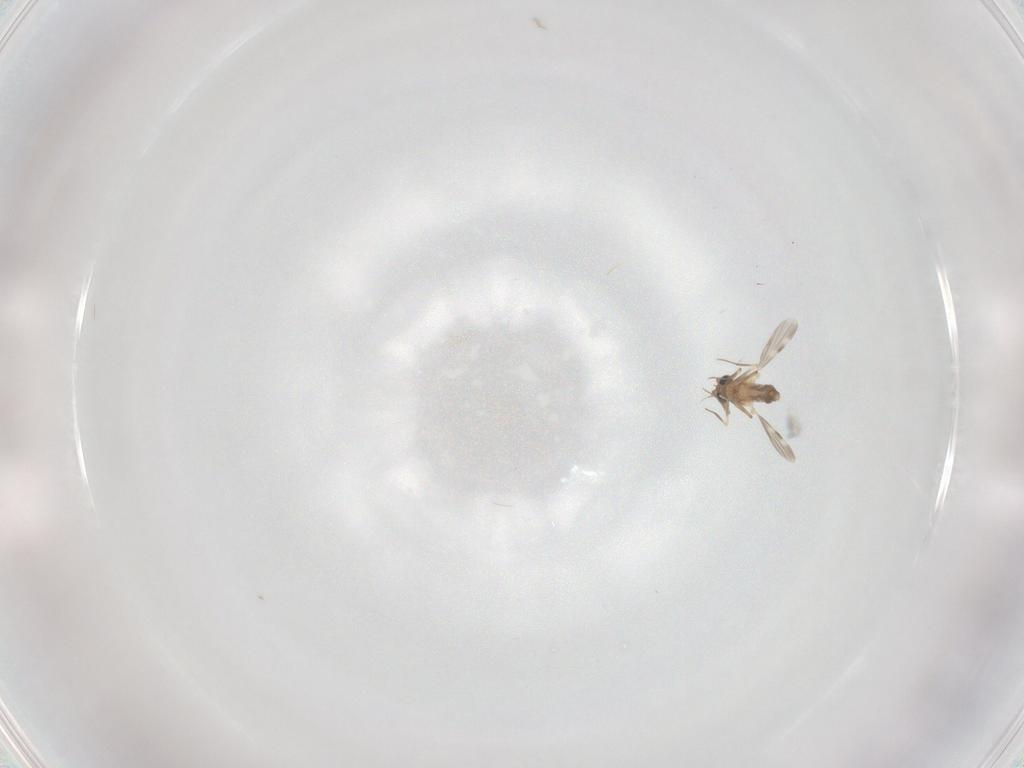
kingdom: Animalia
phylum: Arthropoda
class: Insecta
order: Diptera
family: Ceratopogonidae
